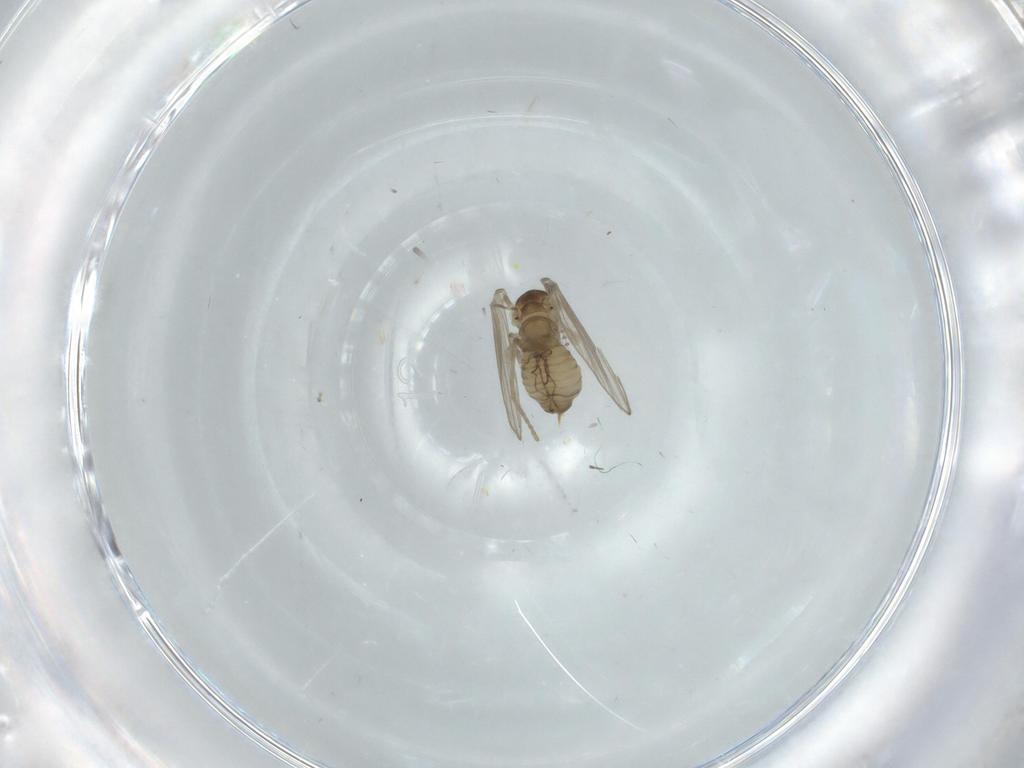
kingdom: Animalia
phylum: Arthropoda
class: Insecta
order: Diptera
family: Psychodidae
